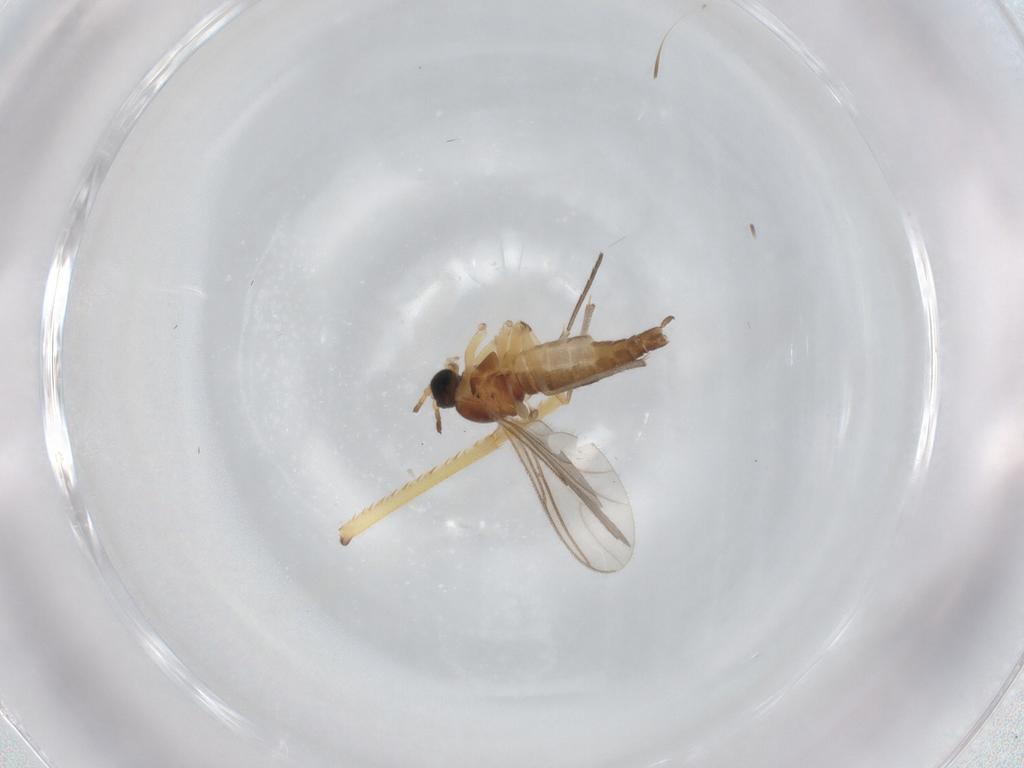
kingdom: Animalia
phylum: Arthropoda
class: Insecta
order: Diptera
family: Sciaridae
